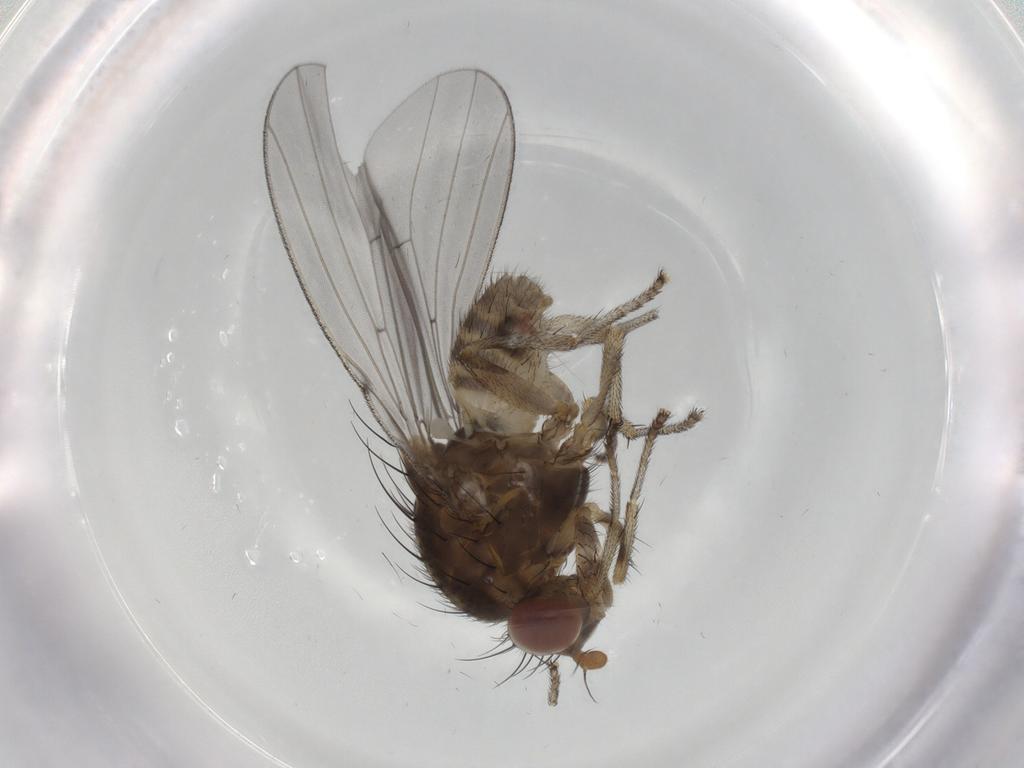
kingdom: Animalia
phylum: Arthropoda
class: Insecta
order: Diptera
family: Lauxaniidae
